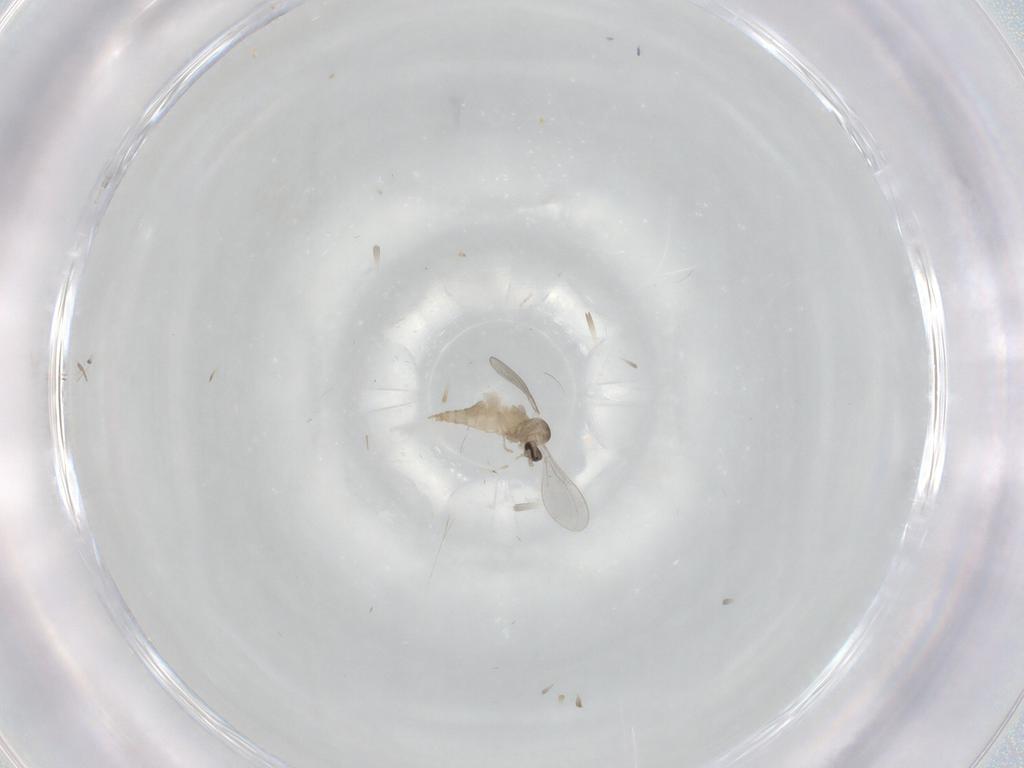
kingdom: Animalia
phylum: Arthropoda
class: Insecta
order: Diptera
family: Cecidomyiidae
